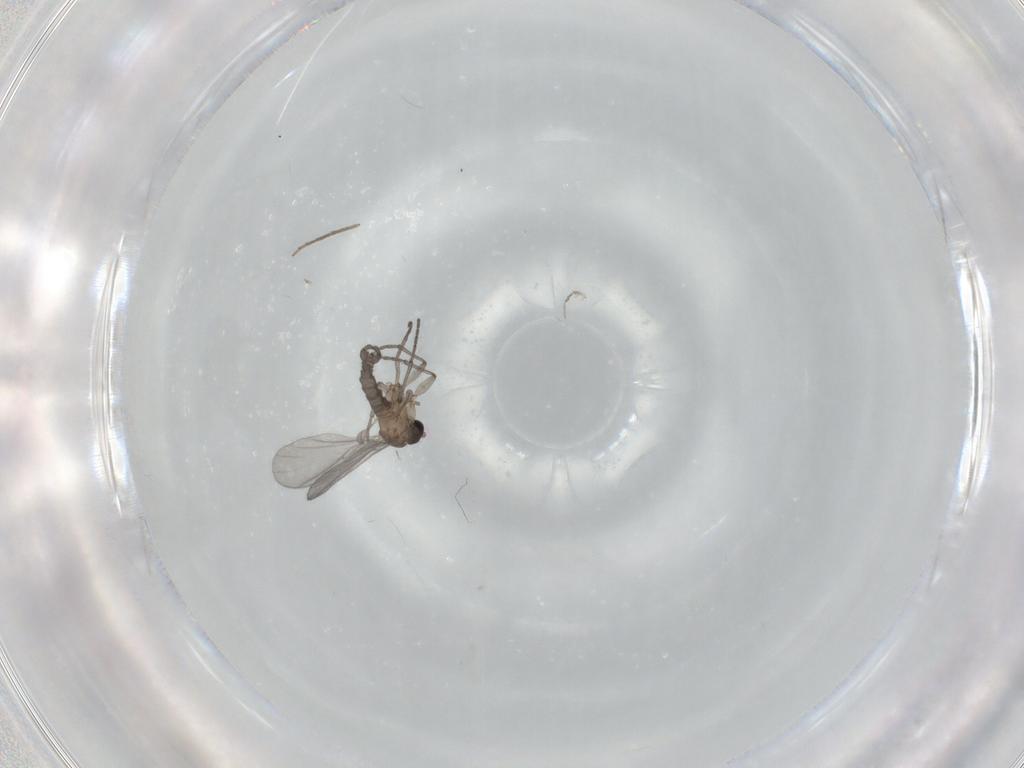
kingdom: Animalia
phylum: Arthropoda
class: Insecta
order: Diptera
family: Sciaridae
